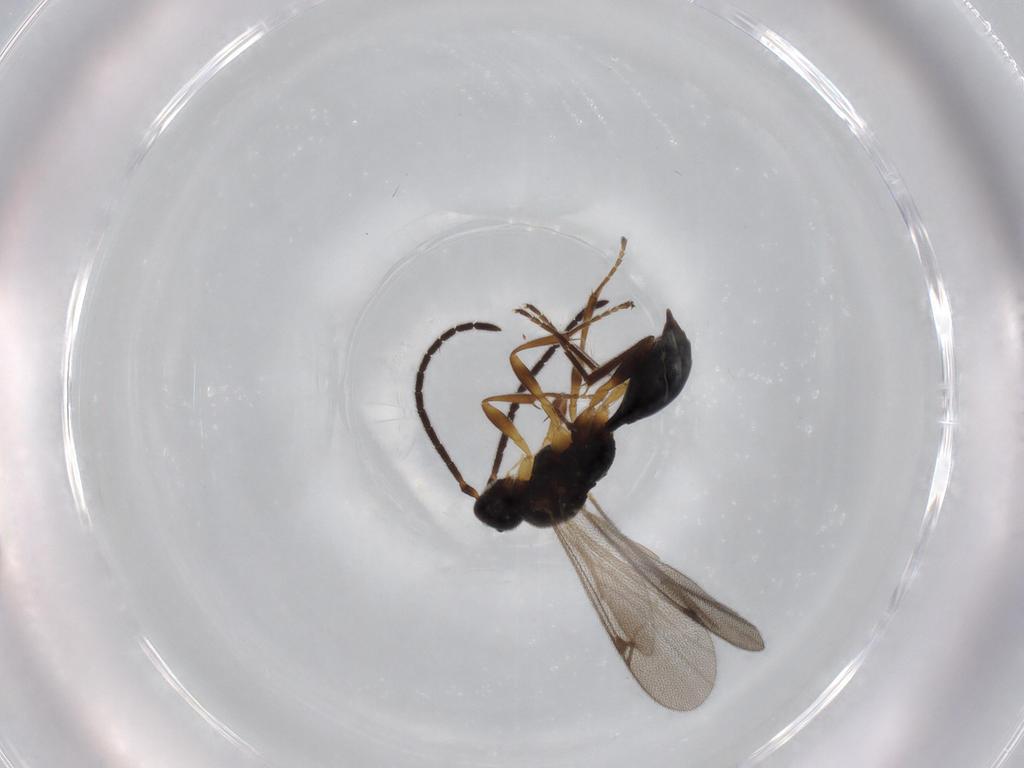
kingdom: Animalia
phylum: Arthropoda
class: Insecta
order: Hymenoptera
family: Proctotrupidae
